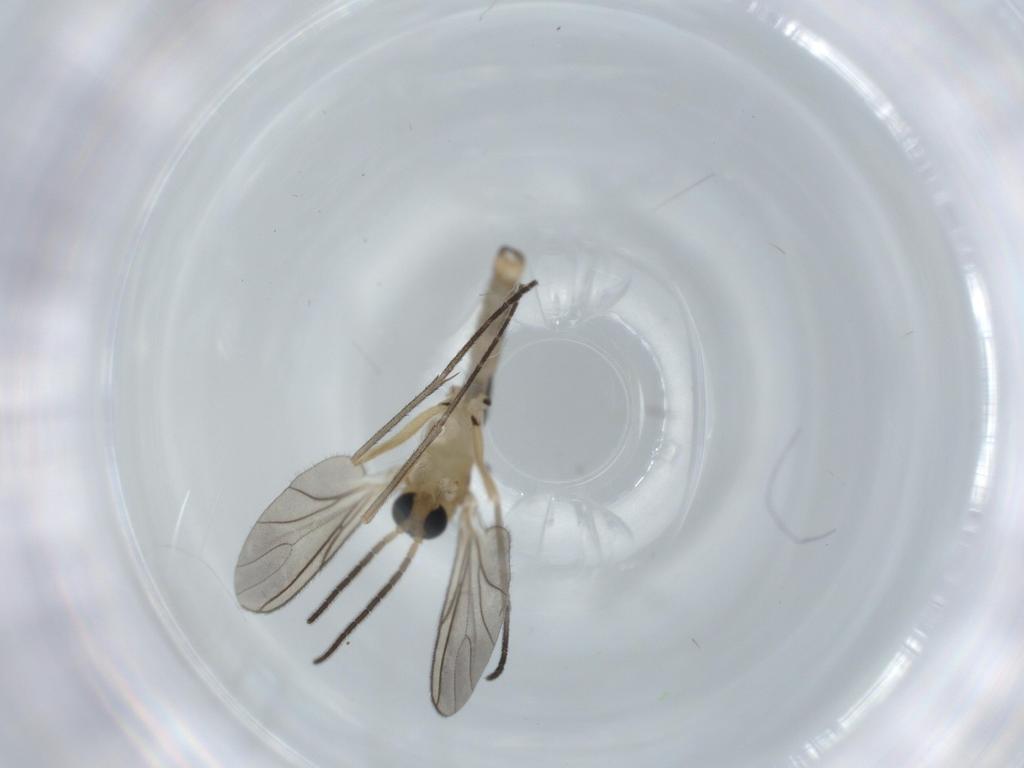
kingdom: Animalia
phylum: Arthropoda
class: Insecta
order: Diptera
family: Sciaridae
